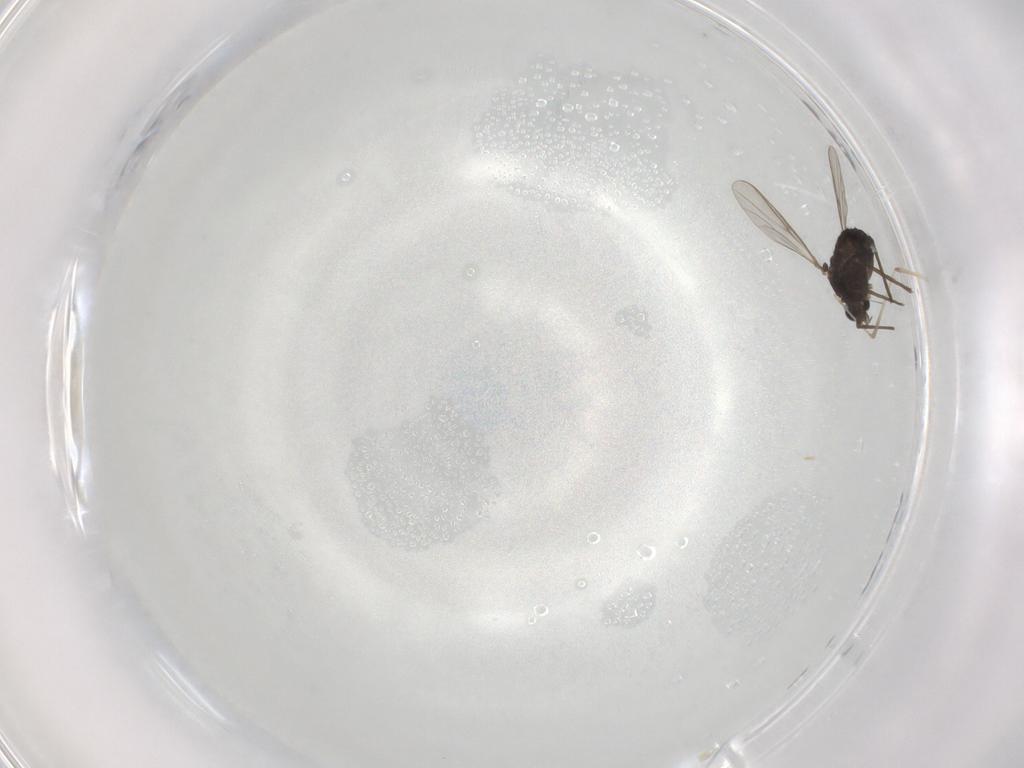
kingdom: Animalia
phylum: Arthropoda
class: Insecta
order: Diptera
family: Chironomidae
